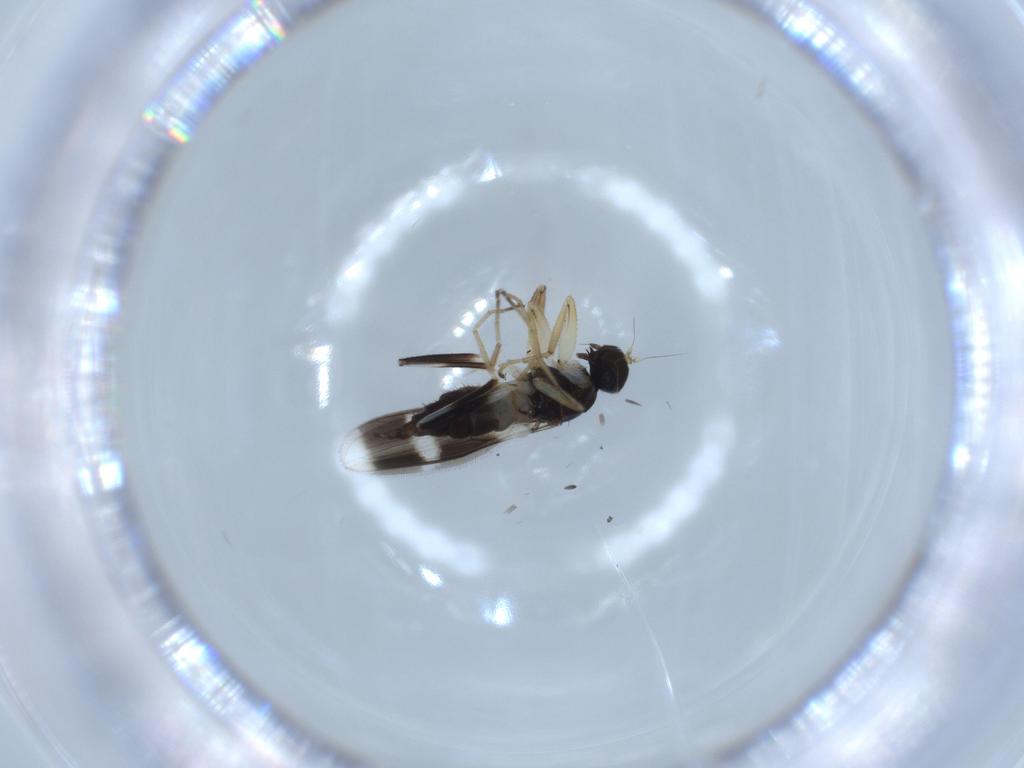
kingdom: Animalia
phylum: Arthropoda
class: Insecta
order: Diptera
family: Hybotidae
